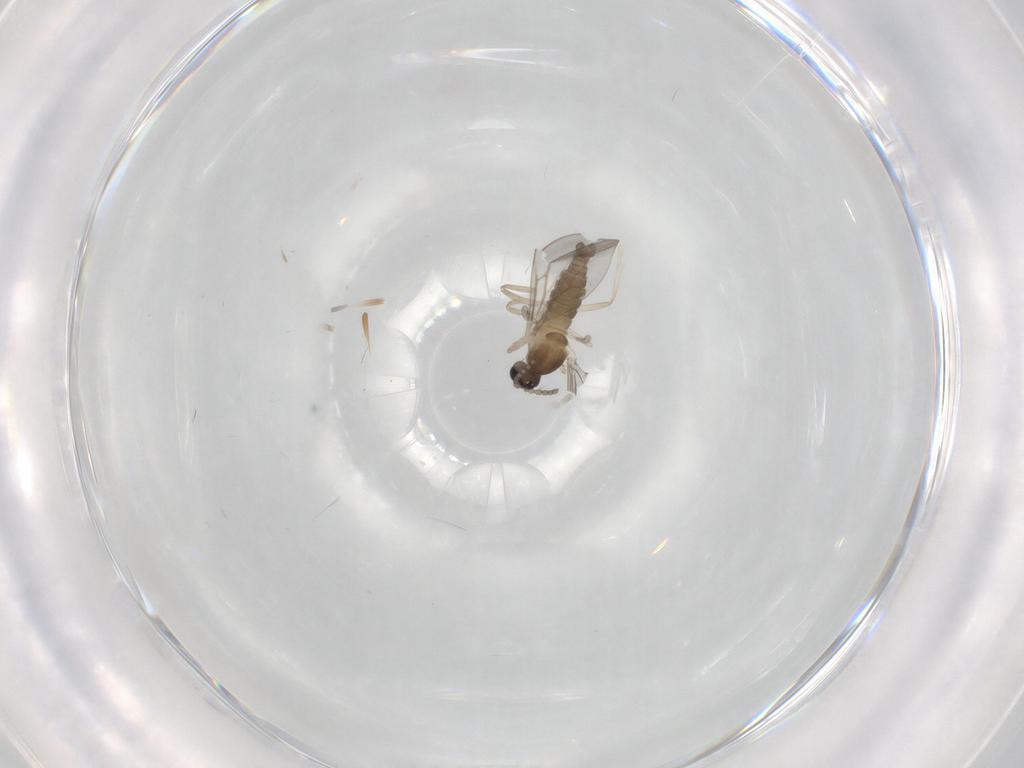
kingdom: Animalia
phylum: Arthropoda
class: Insecta
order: Diptera
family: Cecidomyiidae
